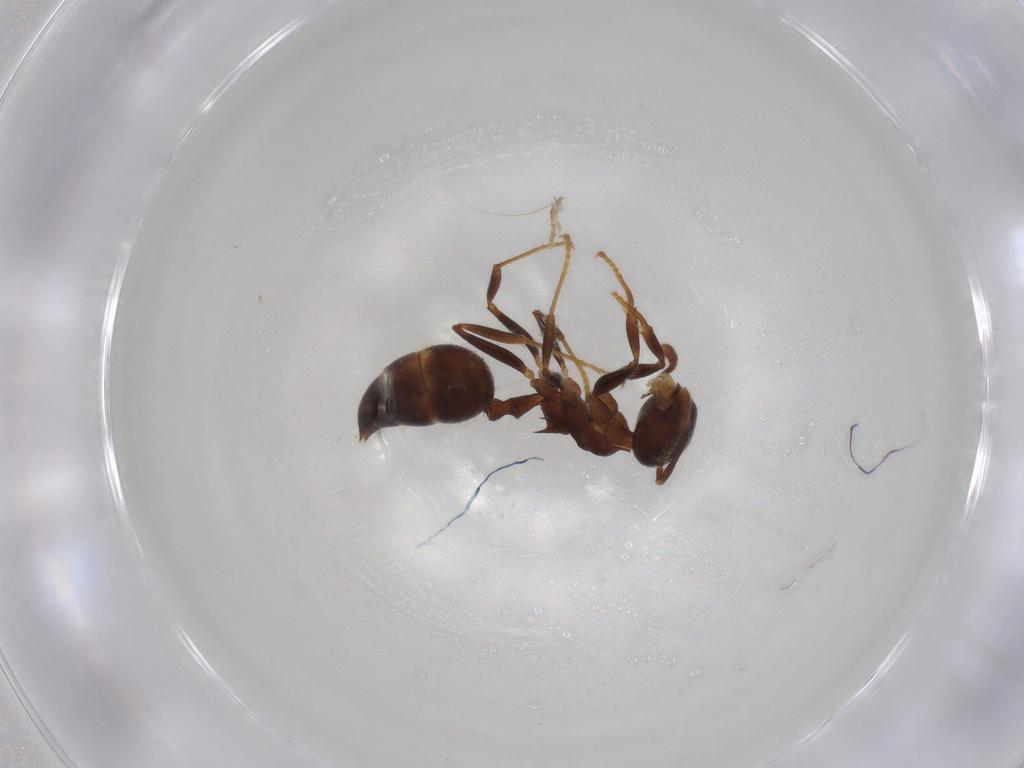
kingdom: Animalia
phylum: Arthropoda
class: Insecta
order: Hymenoptera
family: Formicidae
